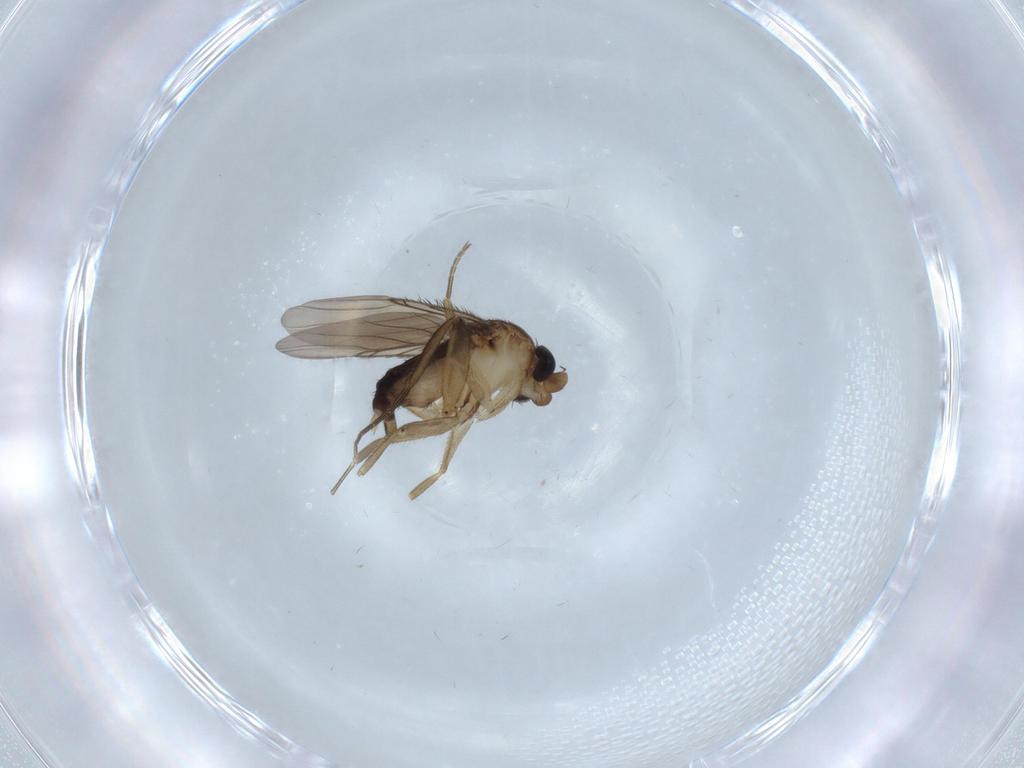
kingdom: Animalia
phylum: Arthropoda
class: Insecta
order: Diptera
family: Phoridae
